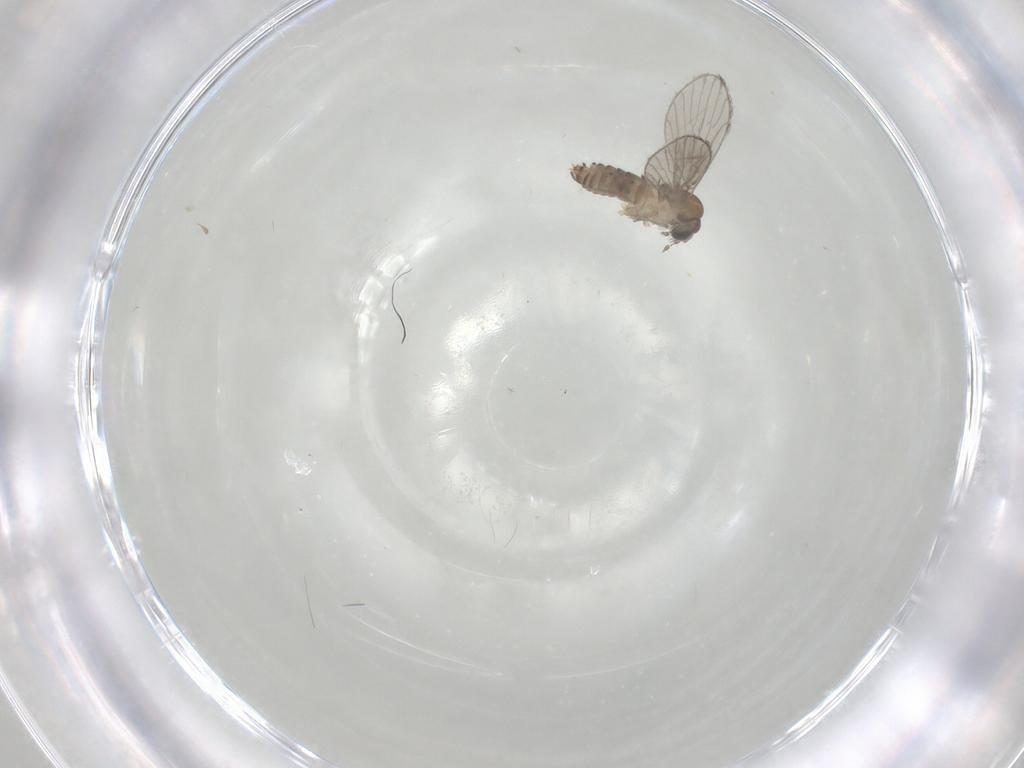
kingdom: Animalia
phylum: Arthropoda
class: Insecta
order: Diptera
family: Psychodidae
